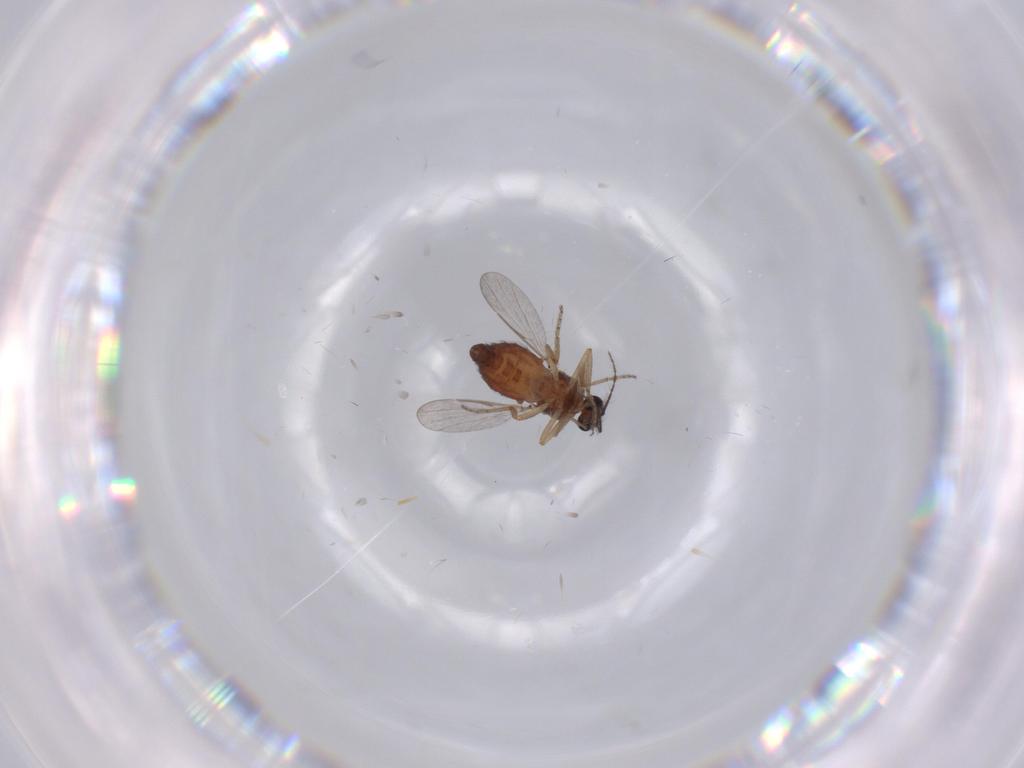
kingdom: Animalia
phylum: Arthropoda
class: Insecta
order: Diptera
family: Ceratopogonidae
